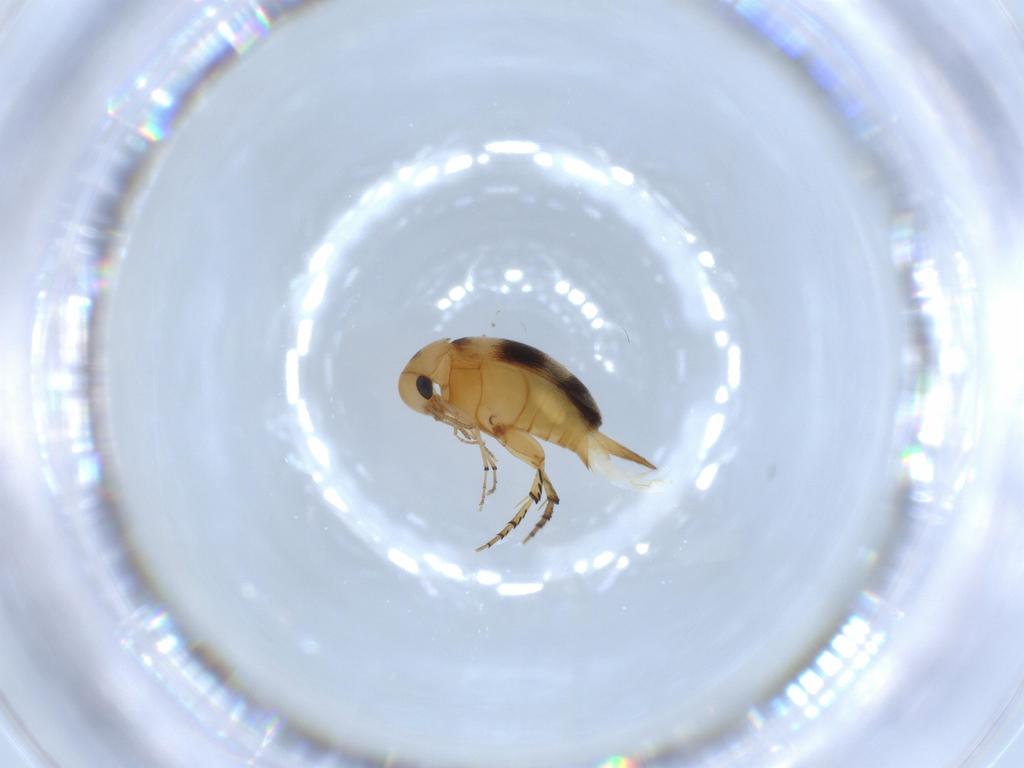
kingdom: Animalia
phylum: Arthropoda
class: Insecta
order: Coleoptera
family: Mordellidae
